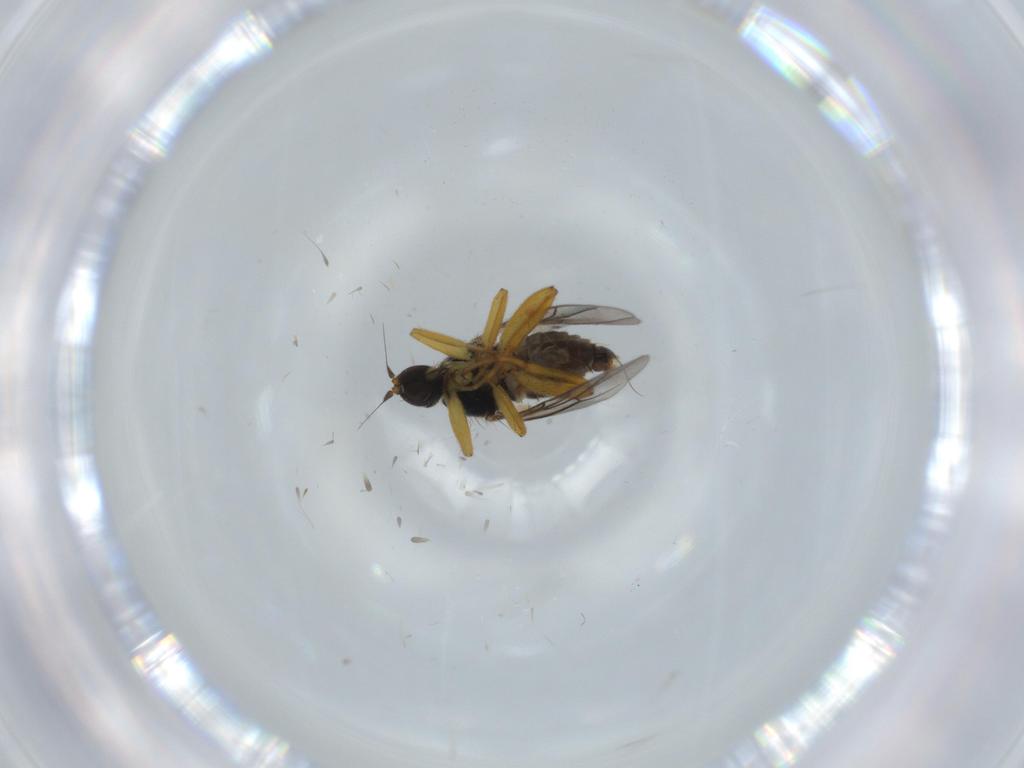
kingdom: Animalia
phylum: Arthropoda
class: Insecta
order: Diptera
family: Hybotidae
